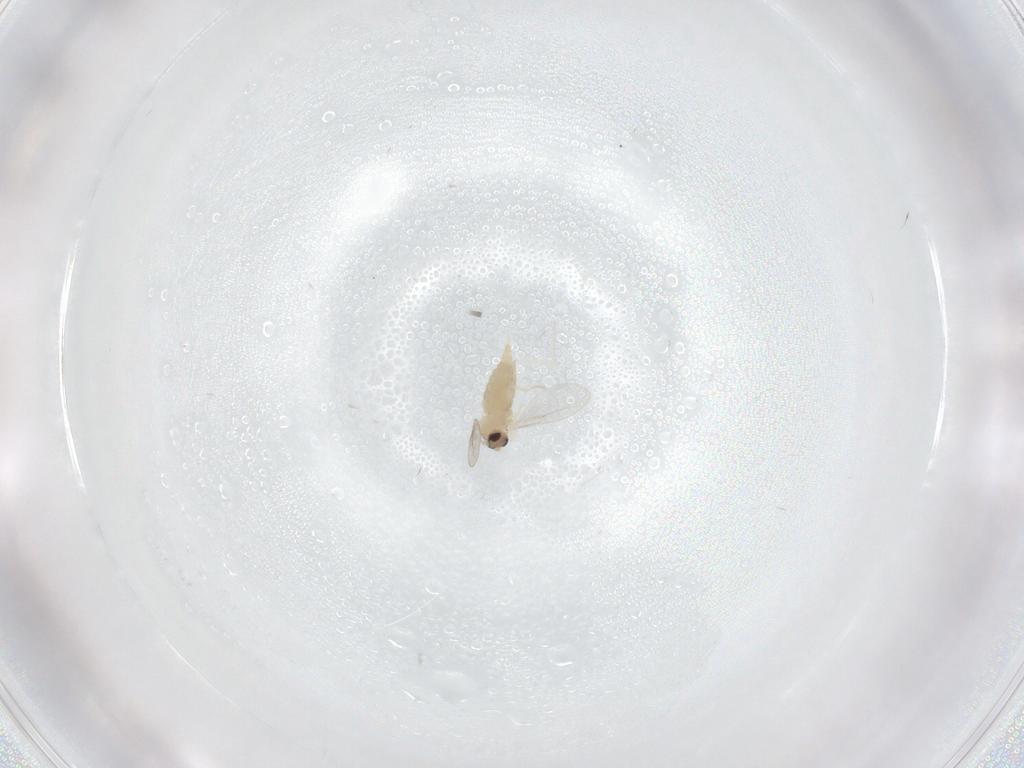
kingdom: Animalia
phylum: Arthropoda
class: Insecta
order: Diptera
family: Cecidomyiidae
